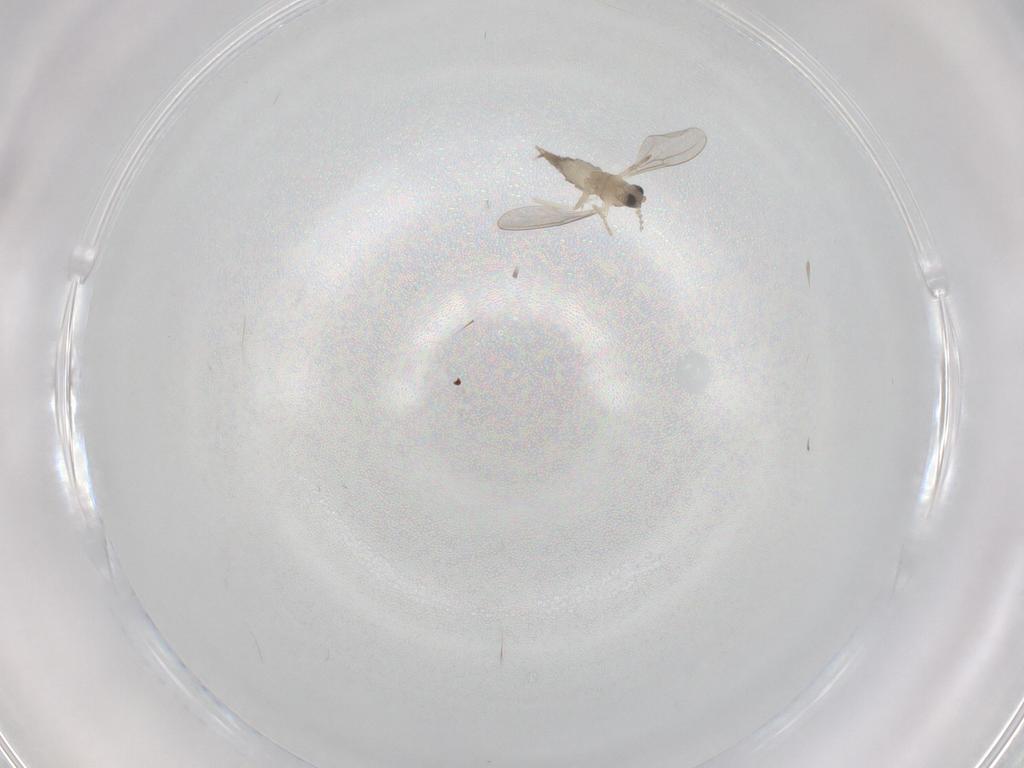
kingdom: Animalia
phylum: Arthropoda
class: Insecta
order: Diptera
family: Cecidomyiidae
